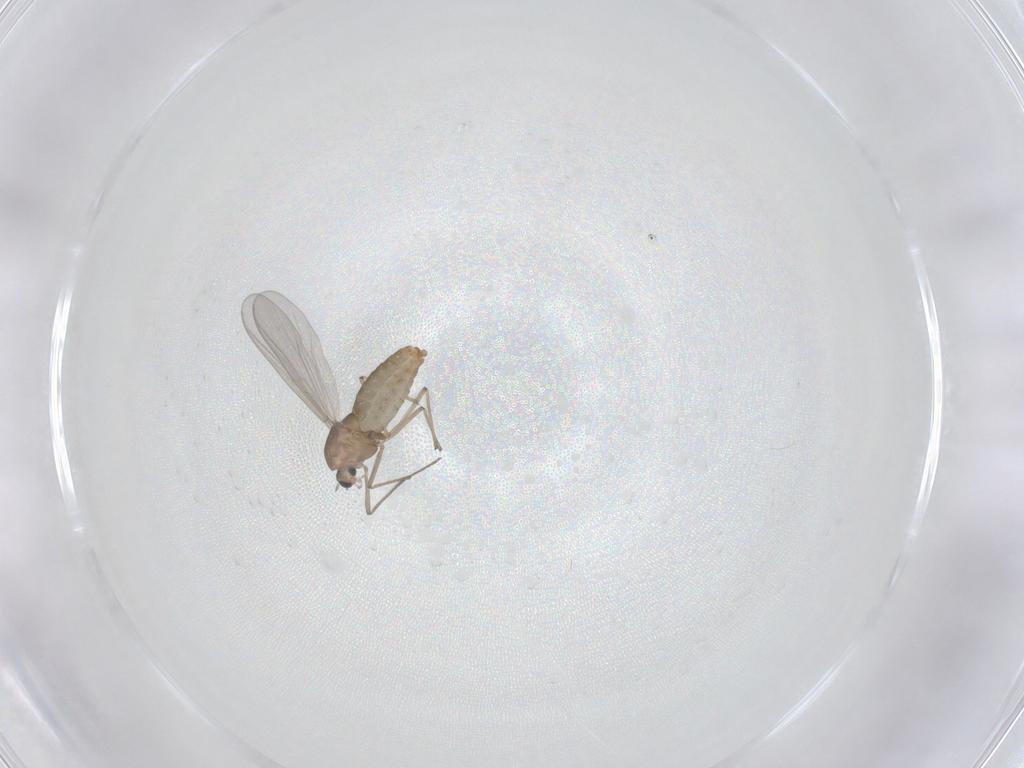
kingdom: Animalia
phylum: Arthropoda
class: Insecta
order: Diptera
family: Chironomidae
